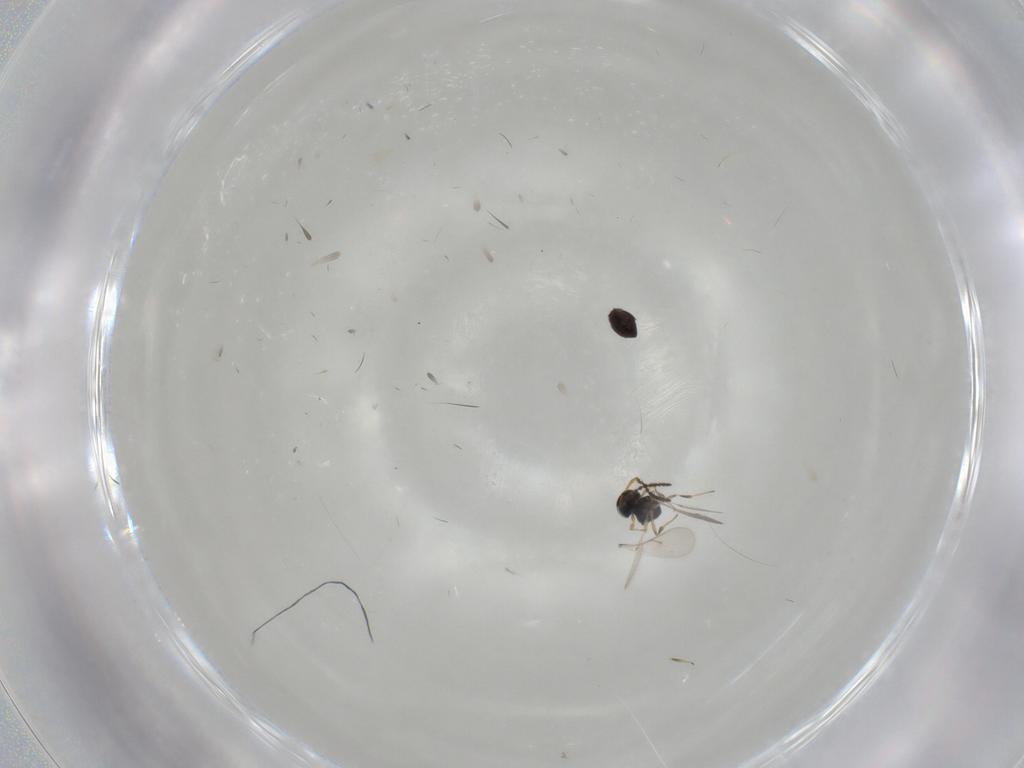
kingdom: Animalia
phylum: Arthropoda
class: Insecta
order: Hymenoptera
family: Scelionidae
